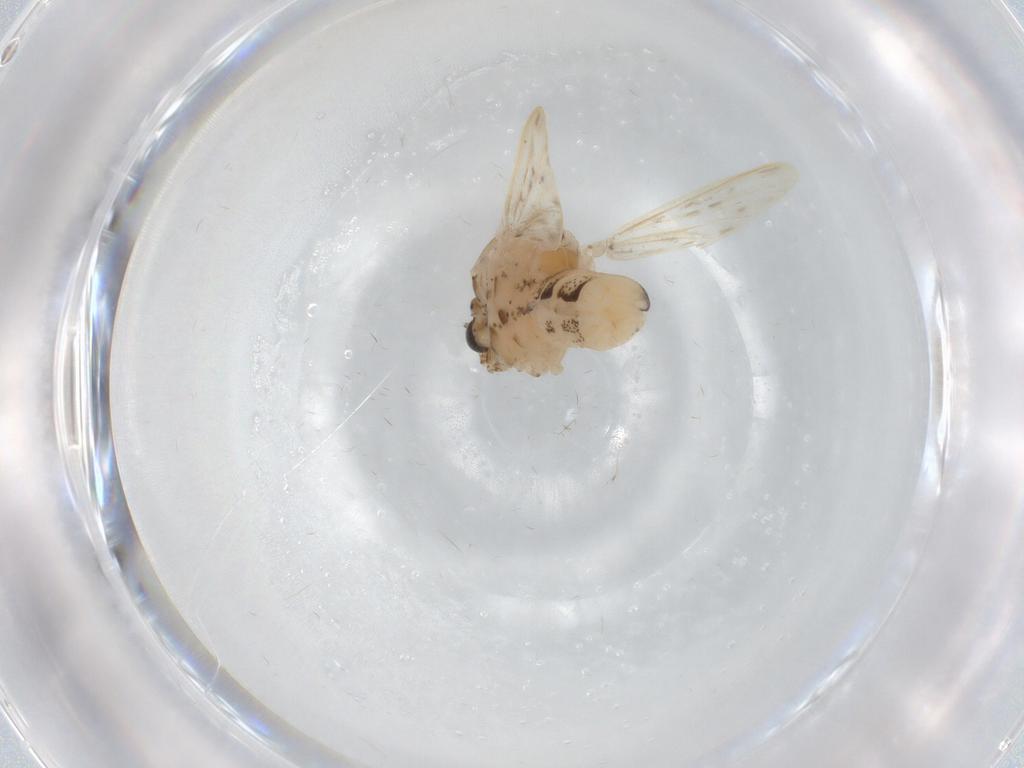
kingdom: Animalia
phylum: Arthropoda
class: Insecta
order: Diptera
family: Chaoboridae
